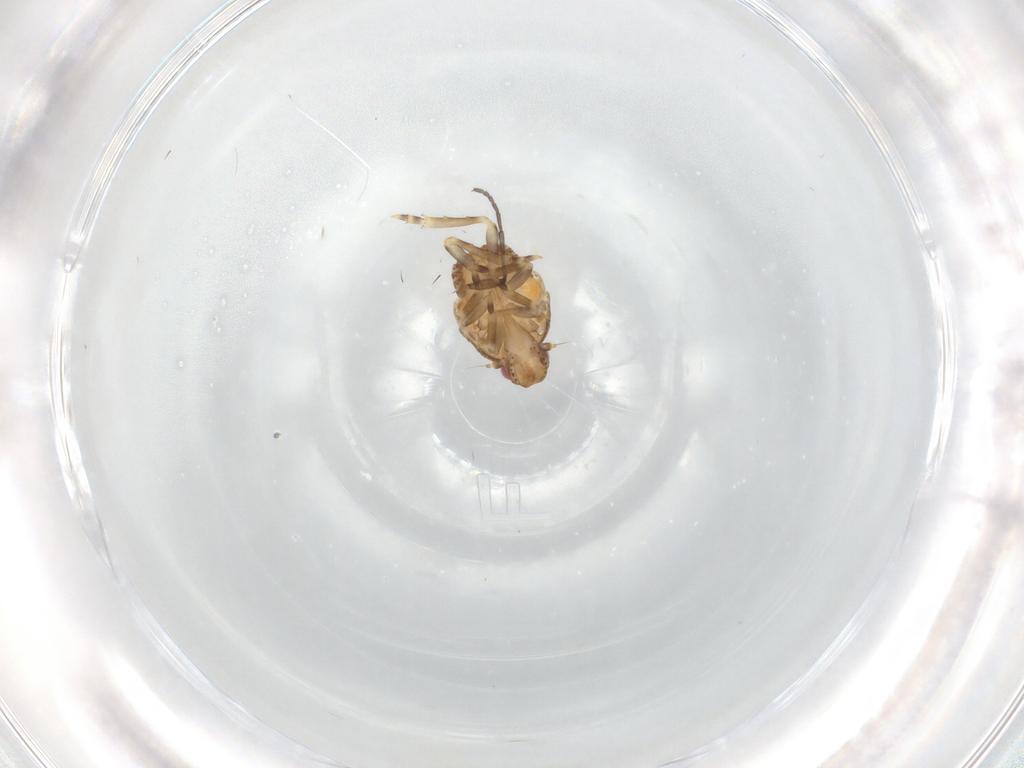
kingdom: Animalia
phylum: Arthropoda
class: Insecta
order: Hemiptera
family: Flatidae
